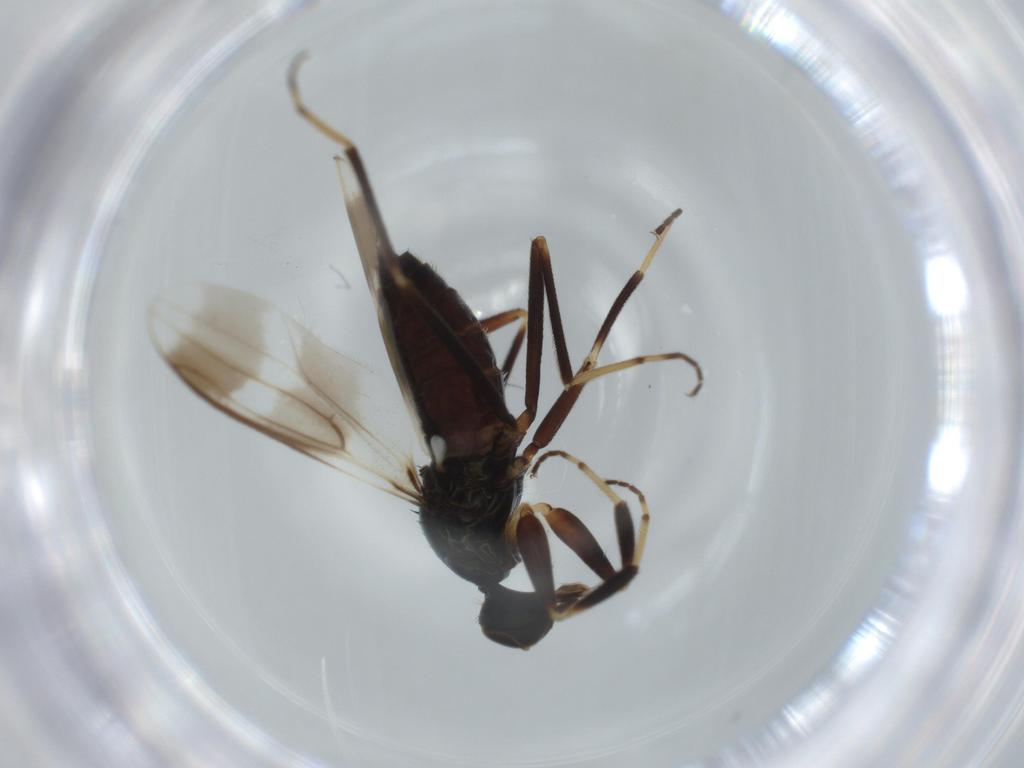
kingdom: Animalia
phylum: Arthropoda
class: Insecta
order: Diptera
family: Hybotidae
